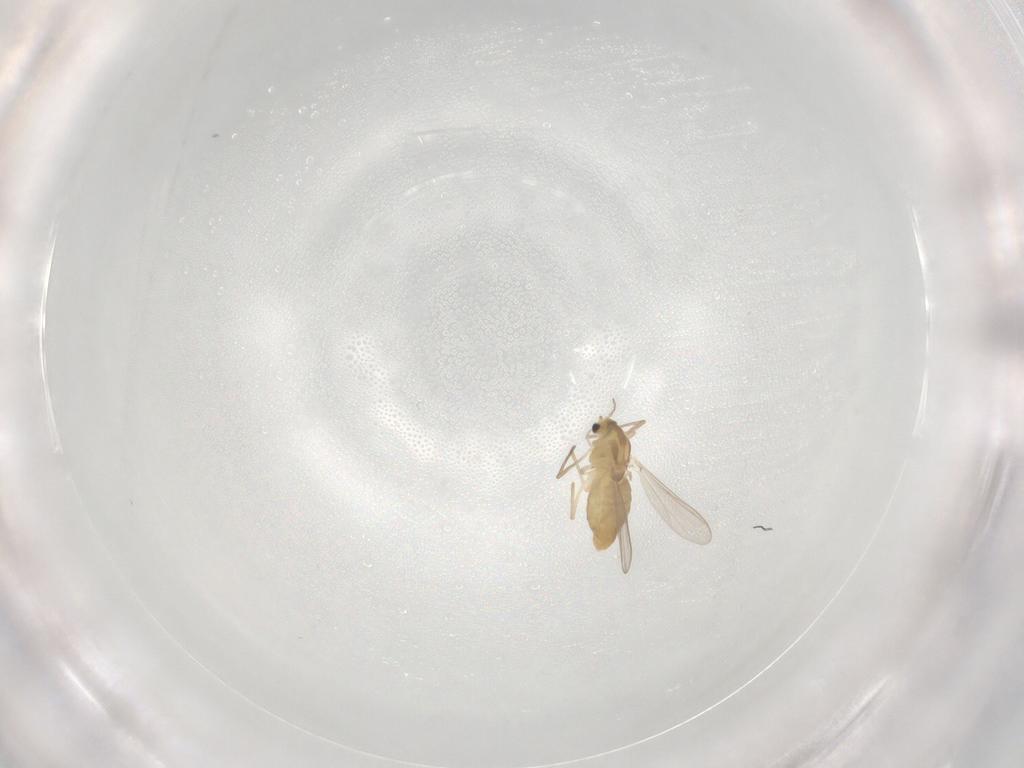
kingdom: Animalia
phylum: Arthropoda
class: Insecta
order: Diptera
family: Chironomidae
